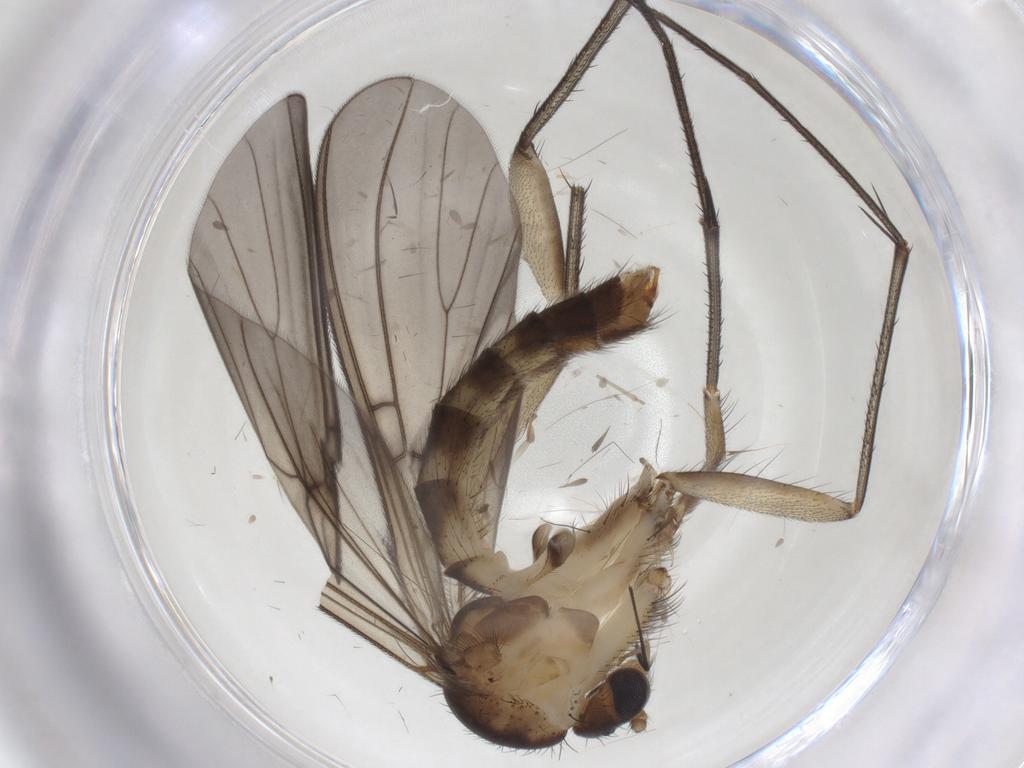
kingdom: Animalia
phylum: Arthropoda
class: Insecta
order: Diptera
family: Mycetophilidae
